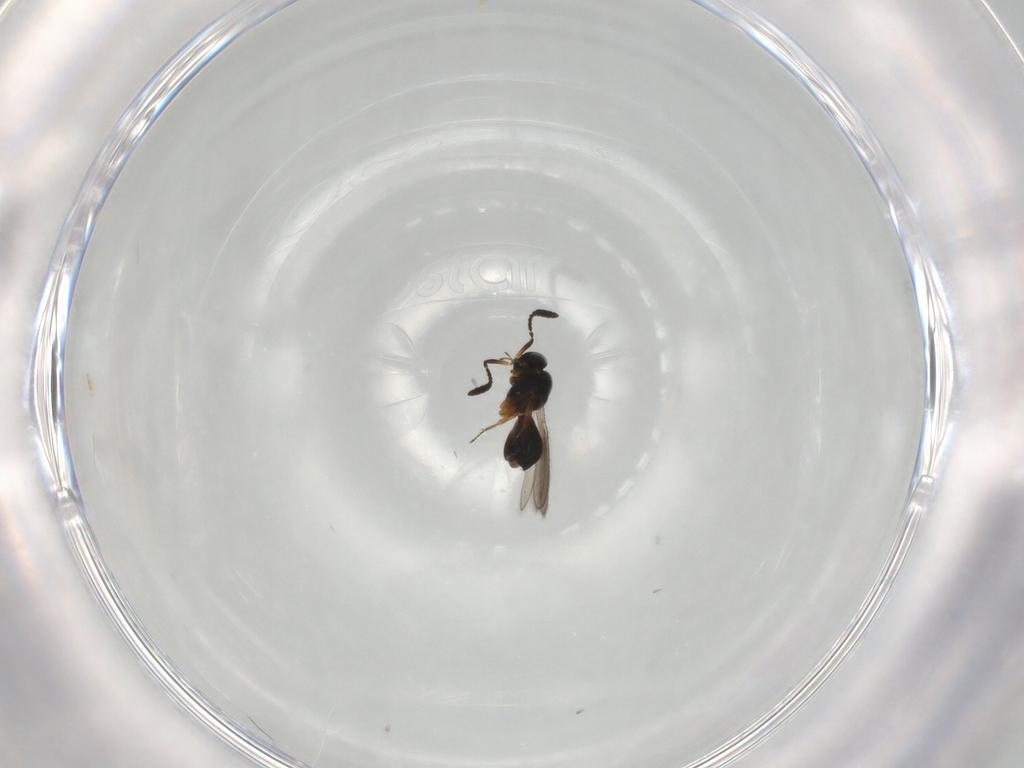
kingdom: Animalia
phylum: Arthropoda
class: Insecta
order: Hymenoptera
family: Scelionidae
